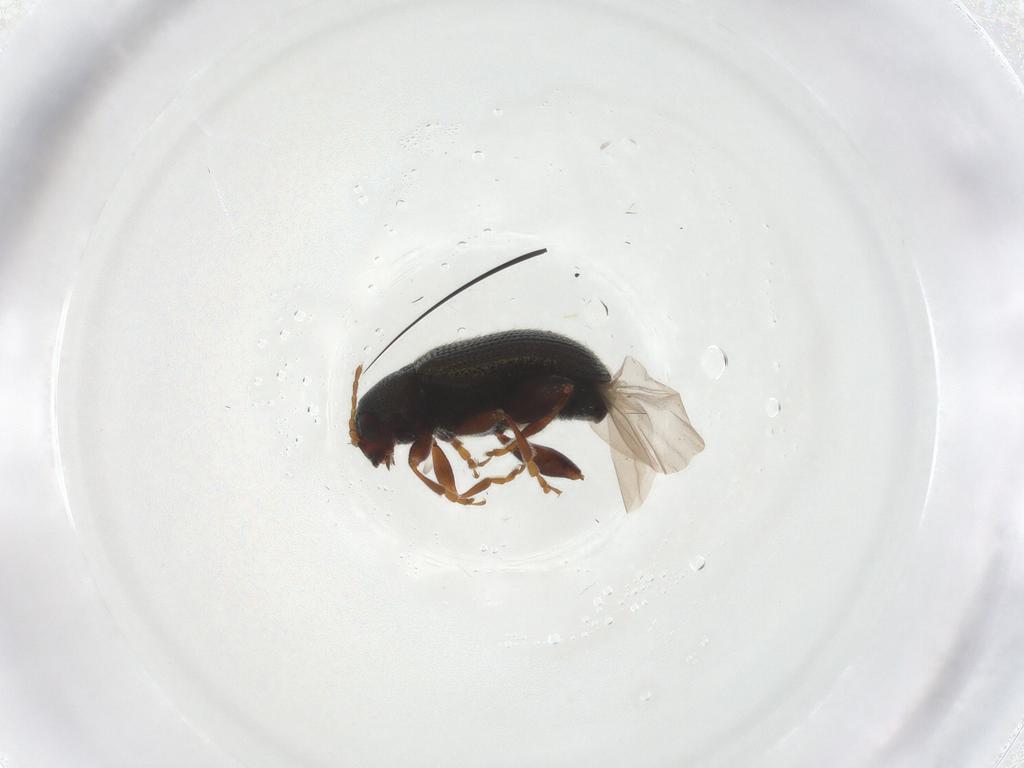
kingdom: Animalia
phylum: Arthropoda
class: Insecta
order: Coleoptera
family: Chrysomelidae
